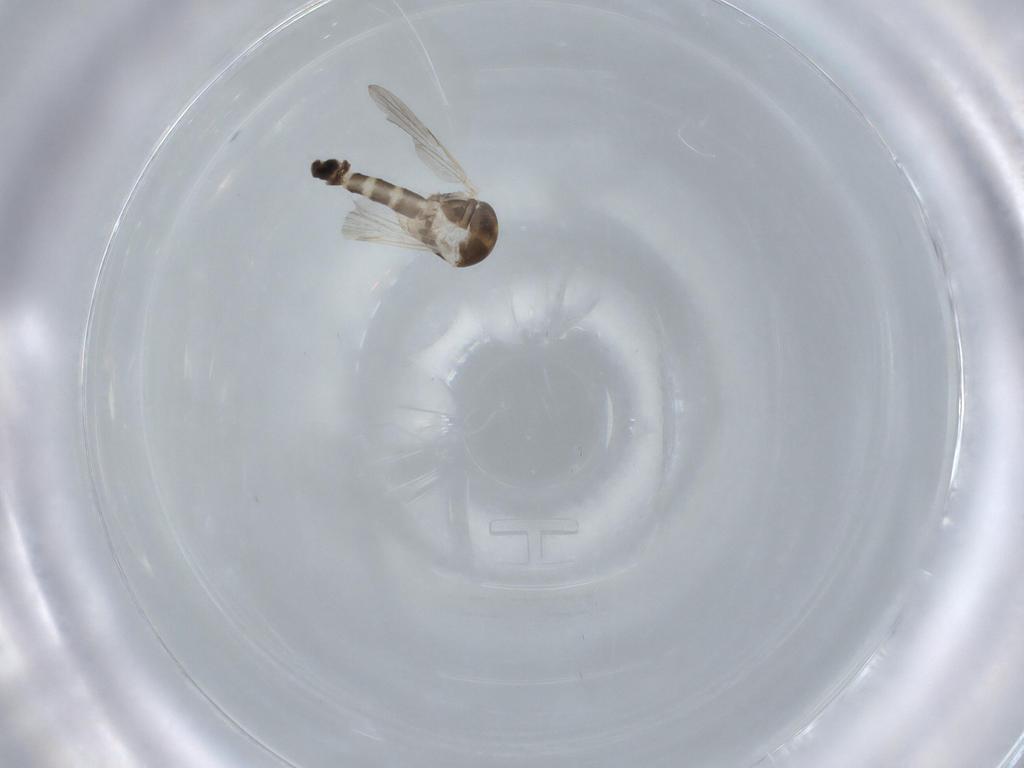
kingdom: Animalia
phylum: Arthropoda
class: Insecta
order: Diptera
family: Ceratopogonidae
